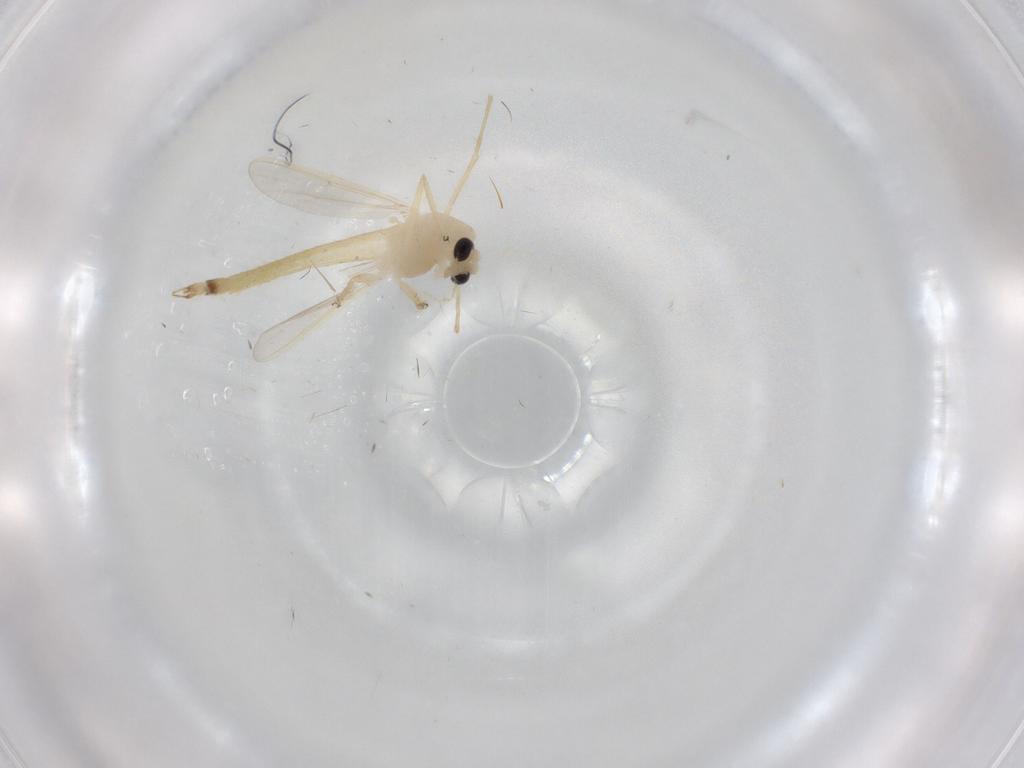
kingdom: Animalia
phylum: Arthropoda
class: Insecta
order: Diptera
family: Chironomidae
